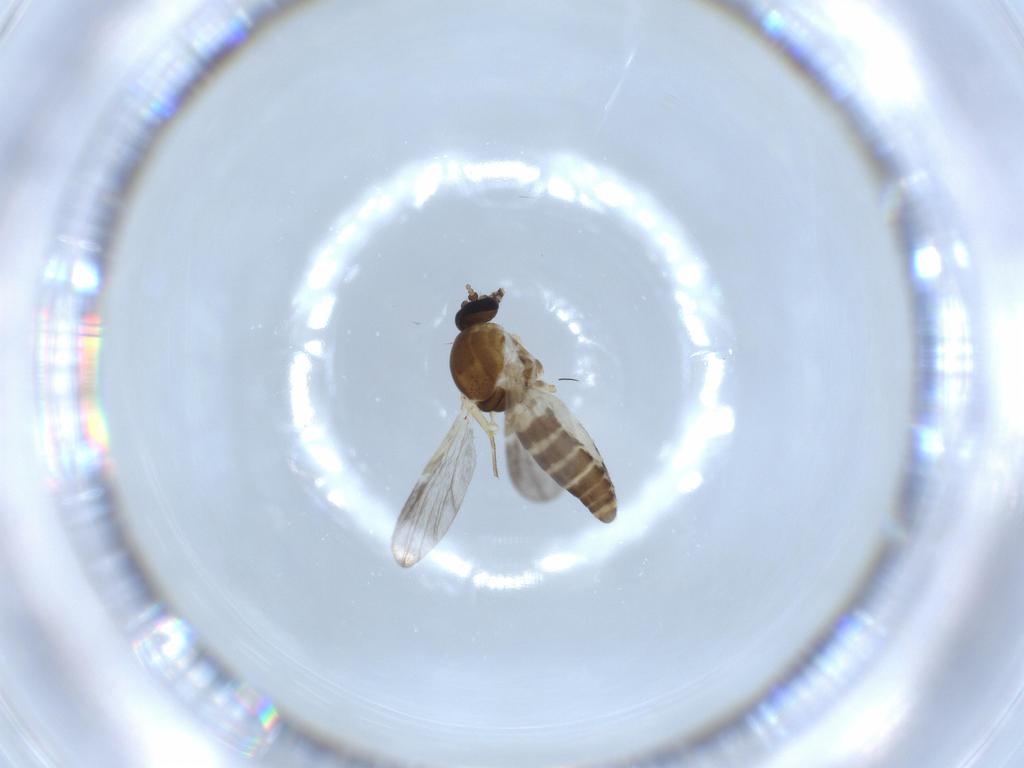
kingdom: Animalia
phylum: Arthropoda
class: Insecta
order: Diptera
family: Ceratopogonidae
